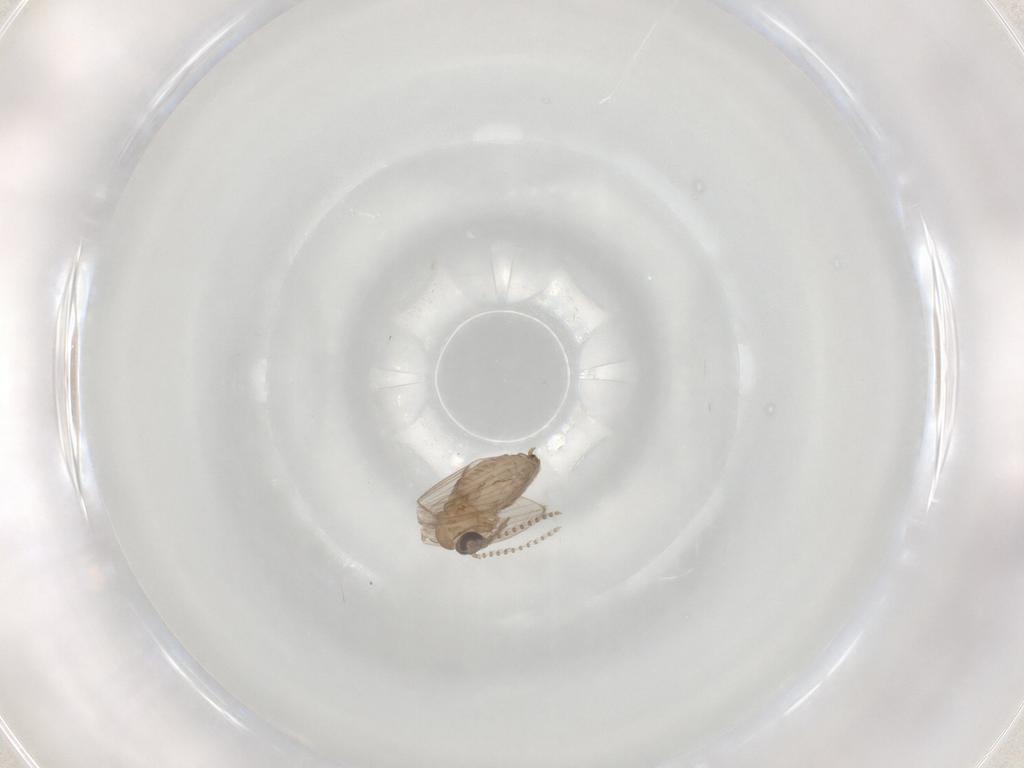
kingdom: Animalia
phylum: Arthropoda
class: Insecta
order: Diptera
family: Psychodidae
